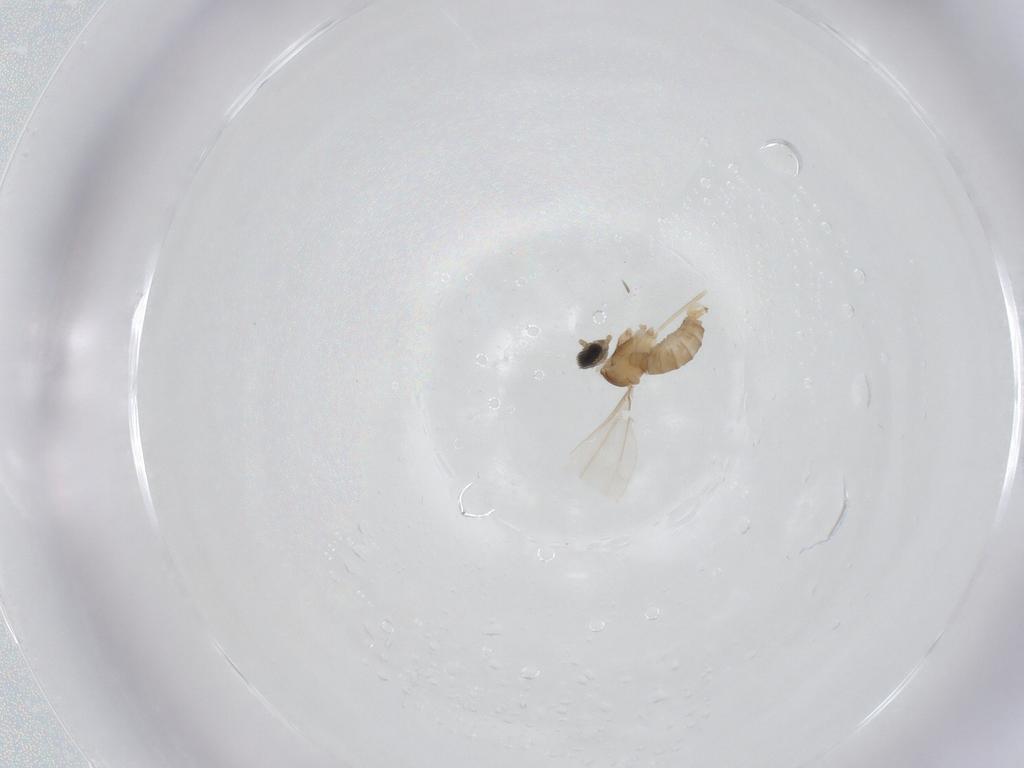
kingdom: Animalia
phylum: Arthropoda
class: Insecta
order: Diptera
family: Cecidomyiidae
